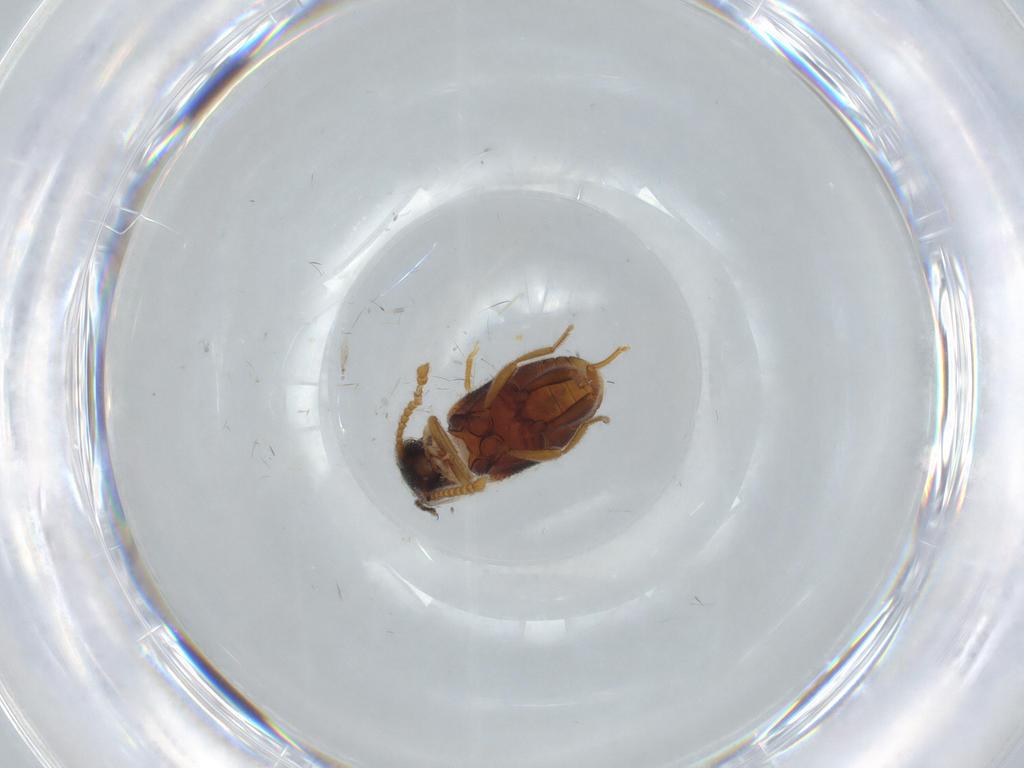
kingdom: Animalia
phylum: Arthropoda
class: Insecta
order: Coleoptera
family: Aderidae
